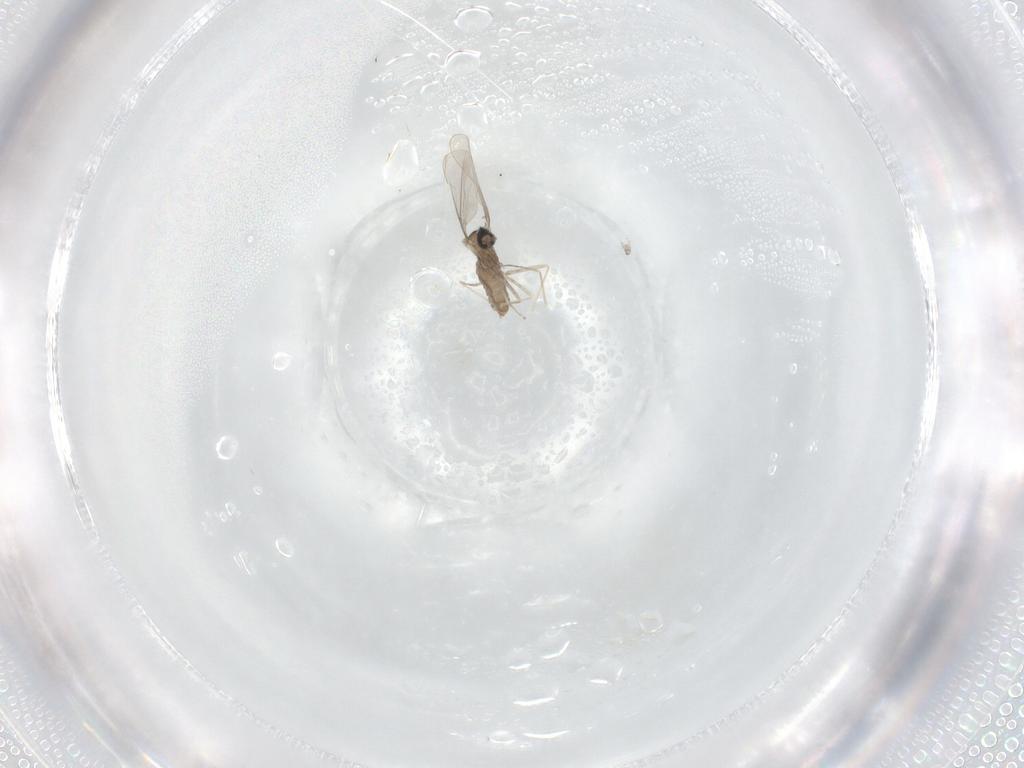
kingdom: Animalia
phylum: Arthropoda
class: Insecta
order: Diptera
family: Cecidomyiidae
